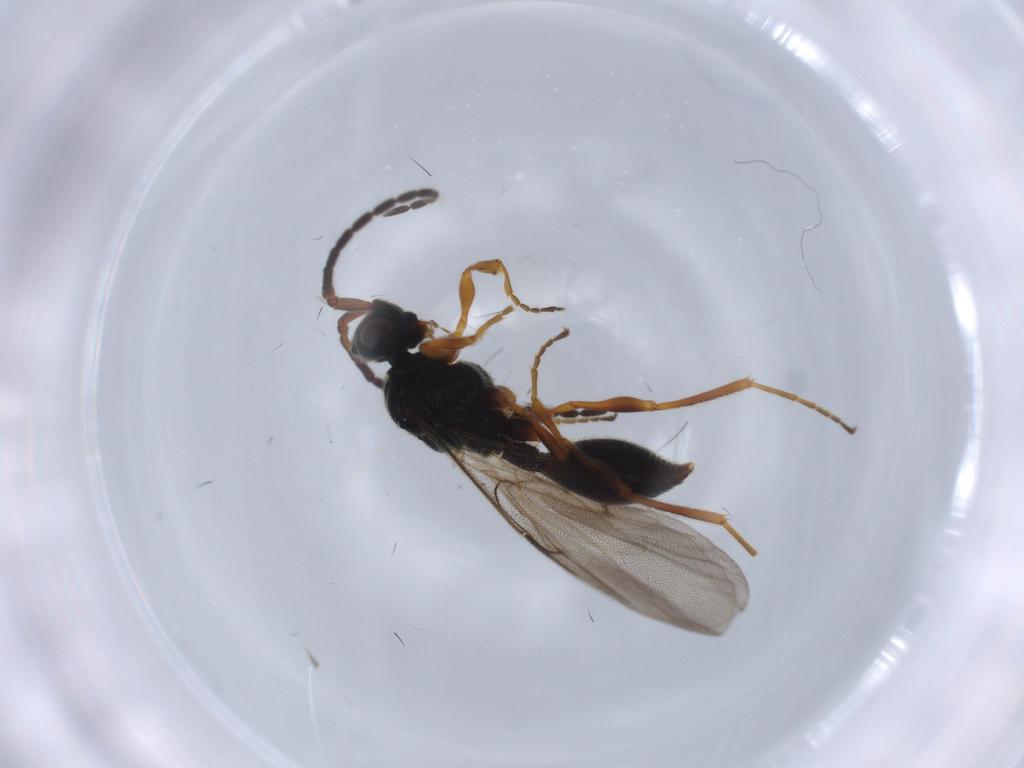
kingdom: Animalia
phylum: Arthropoda
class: Insecta
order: Hymenoptera
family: Braconidae
